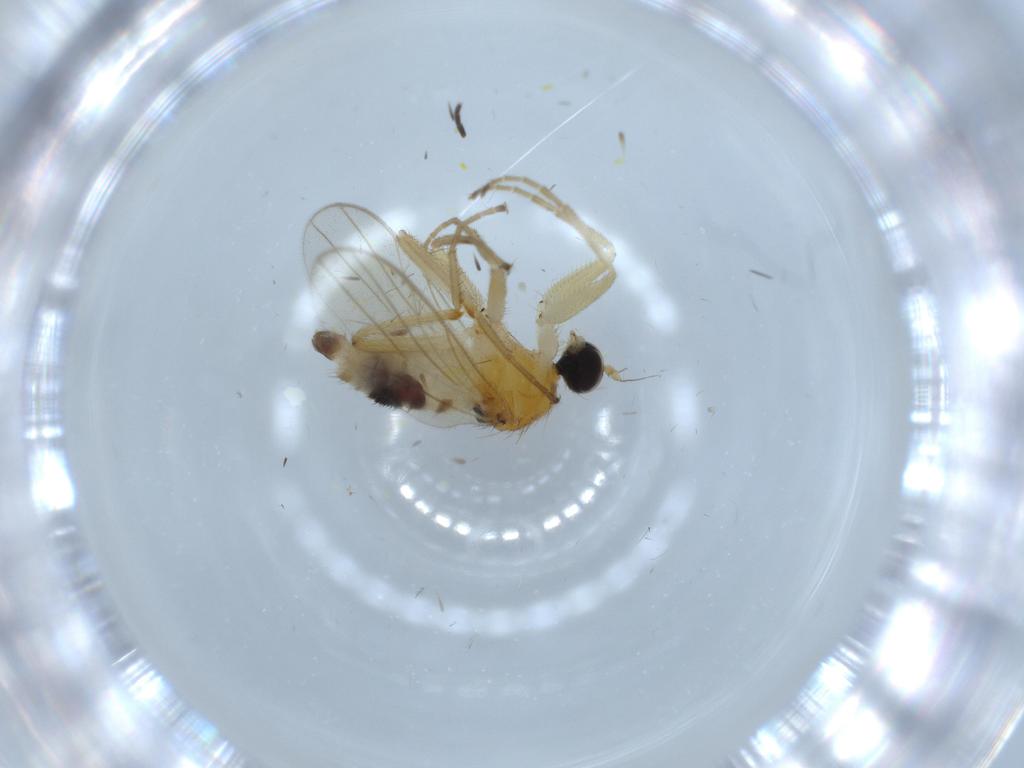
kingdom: Animalia
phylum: Arthropoda
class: Insecta
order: Diptera
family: Hybotidae
